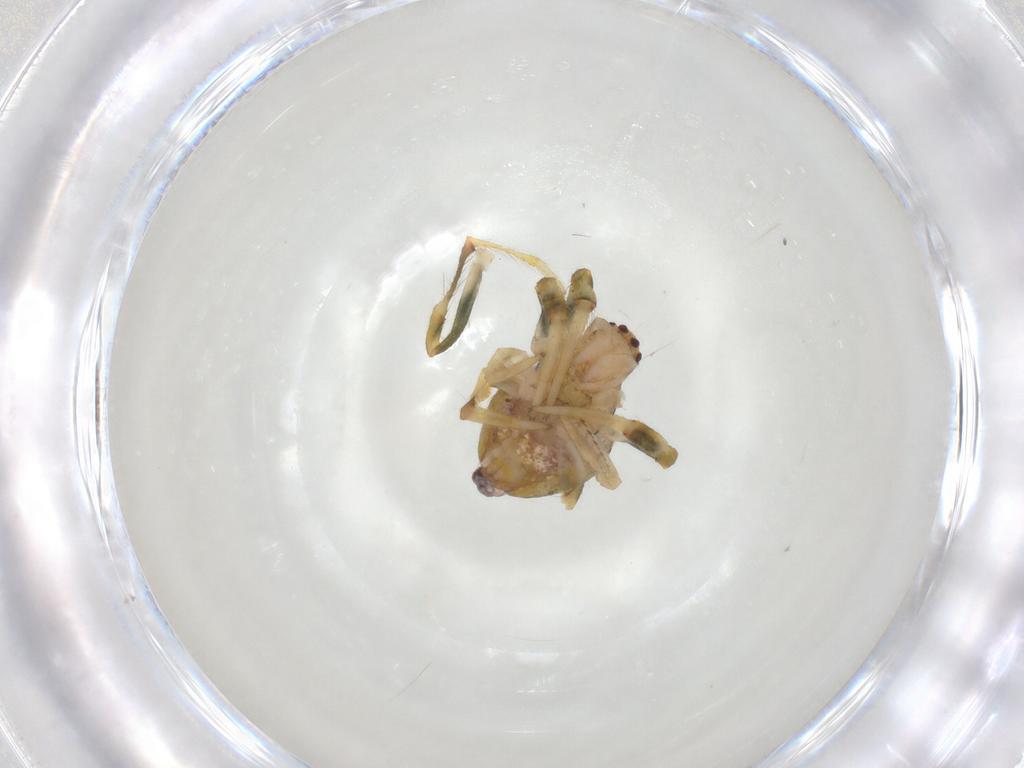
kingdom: Animalia
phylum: Arthropoda
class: Arachnida
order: Araneae
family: Araneidae
